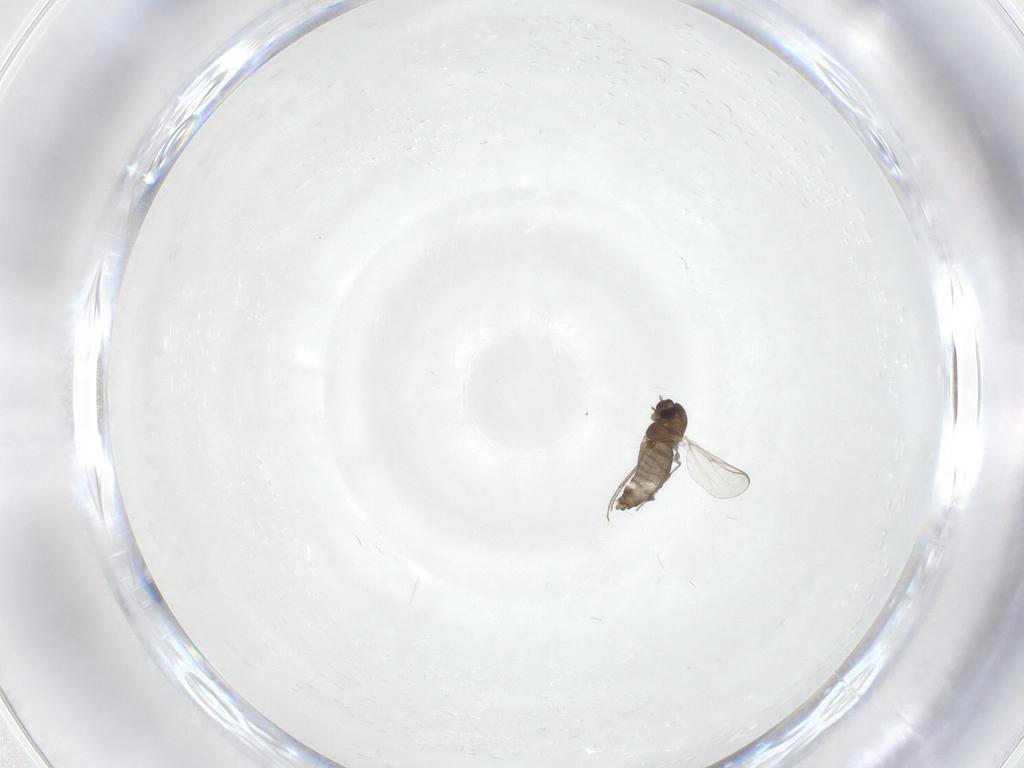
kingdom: Animalia
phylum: Arthropoda
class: Insecta
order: Diptera
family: Chironomidae
